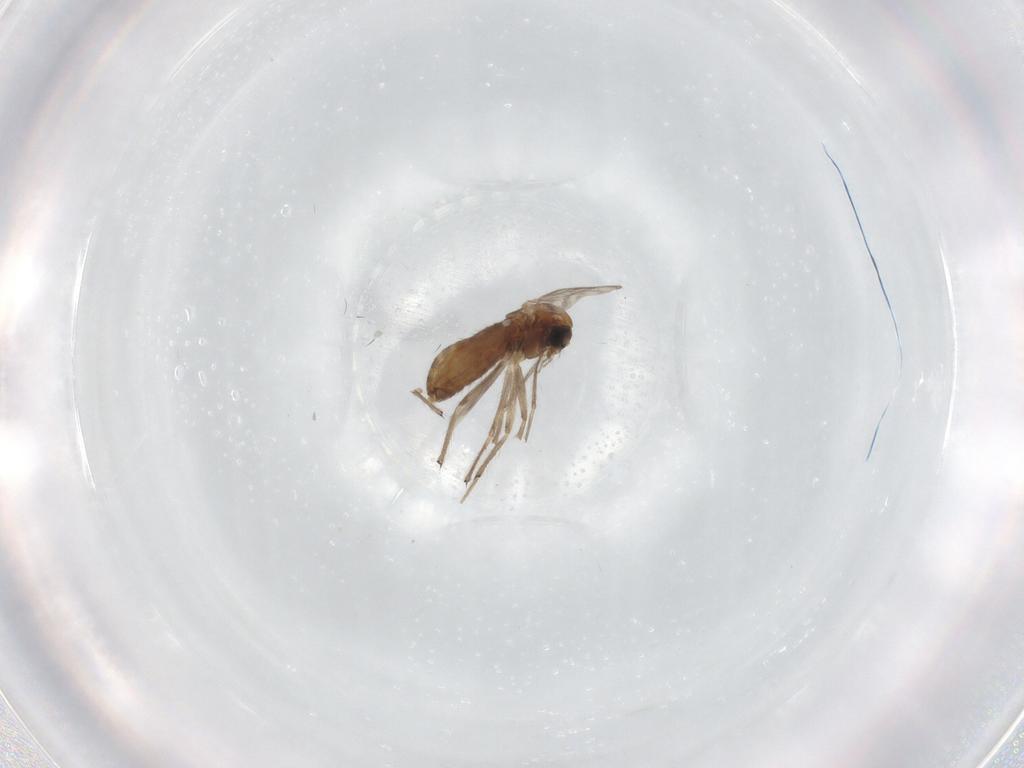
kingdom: Animalia
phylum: Arthropoda
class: Insecta
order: Diptera
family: Chironomidae
